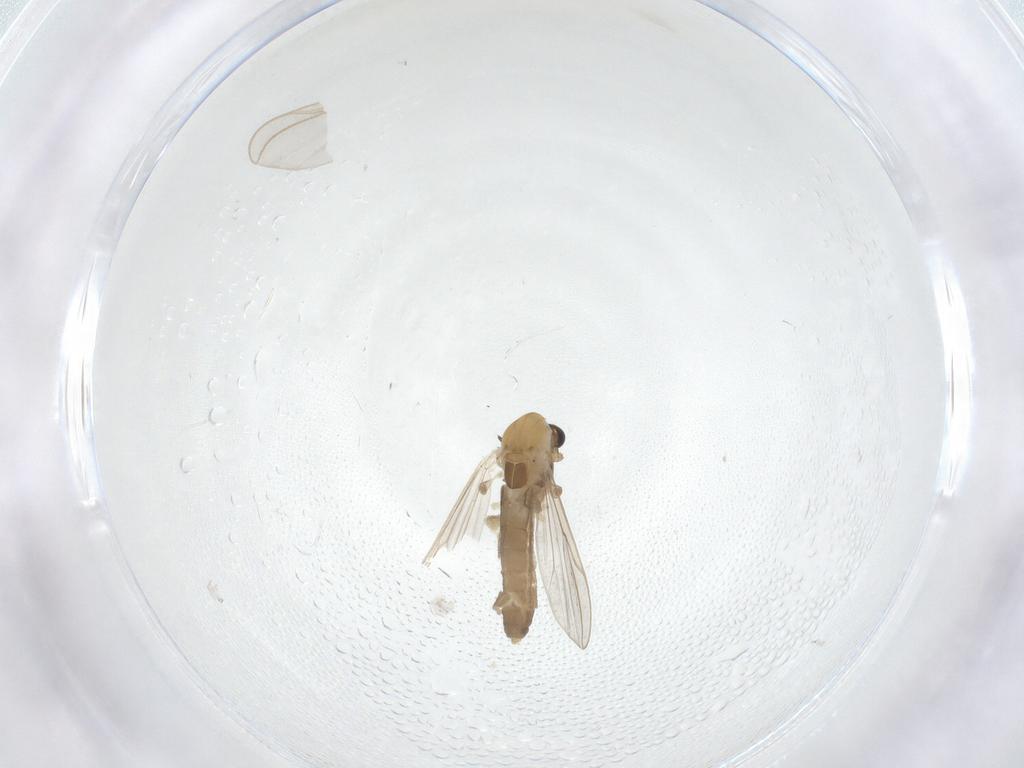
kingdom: Animalia
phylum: Arthropoda
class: Insecta
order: Diptera
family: Chironomidae
